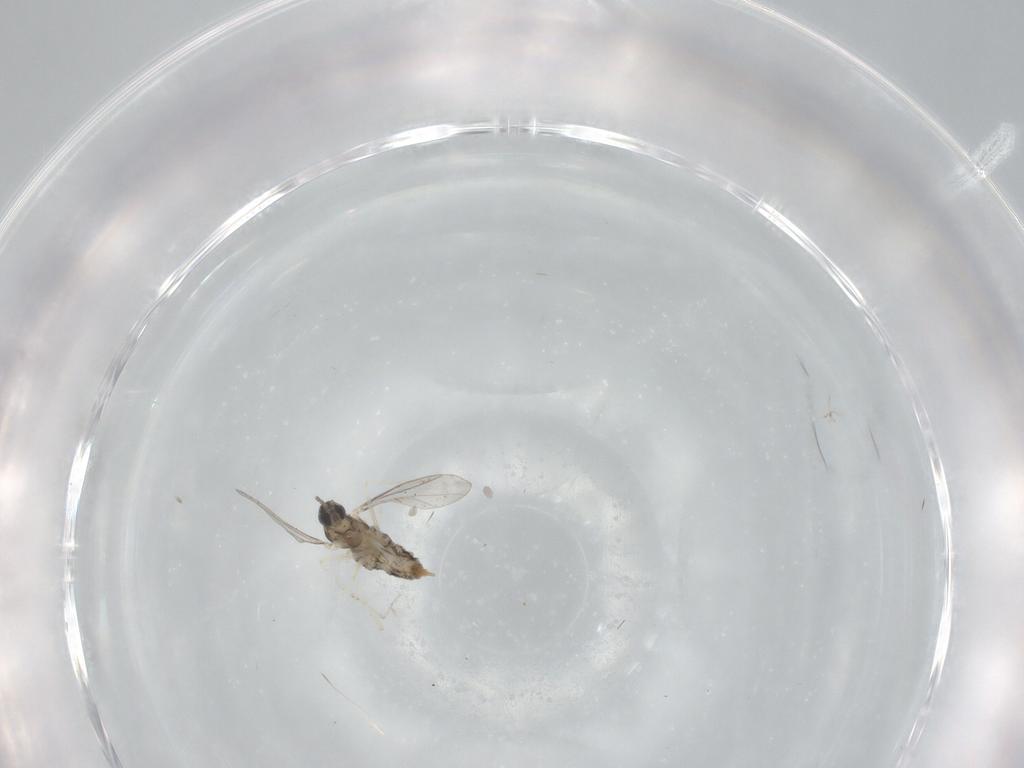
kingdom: Animalia
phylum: Arthropoda
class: Insecta
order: Diptera
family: Cecidomyiidae
